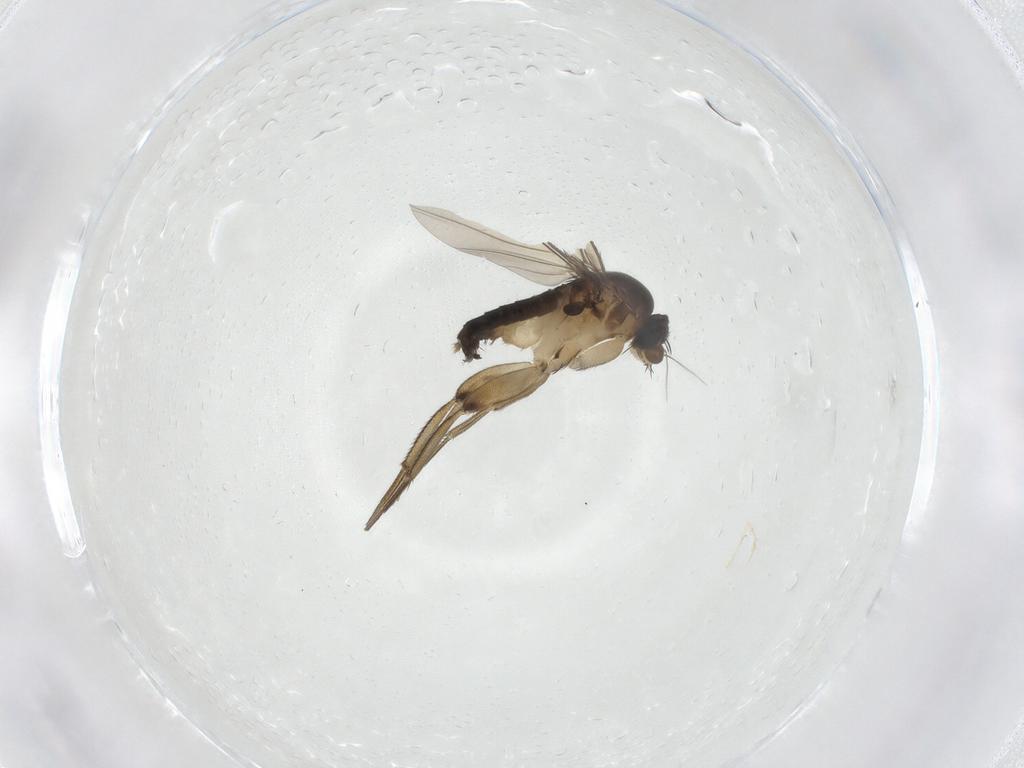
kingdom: Animalia
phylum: Arthropoda
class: Insecta
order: Diptera
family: Phoridae
